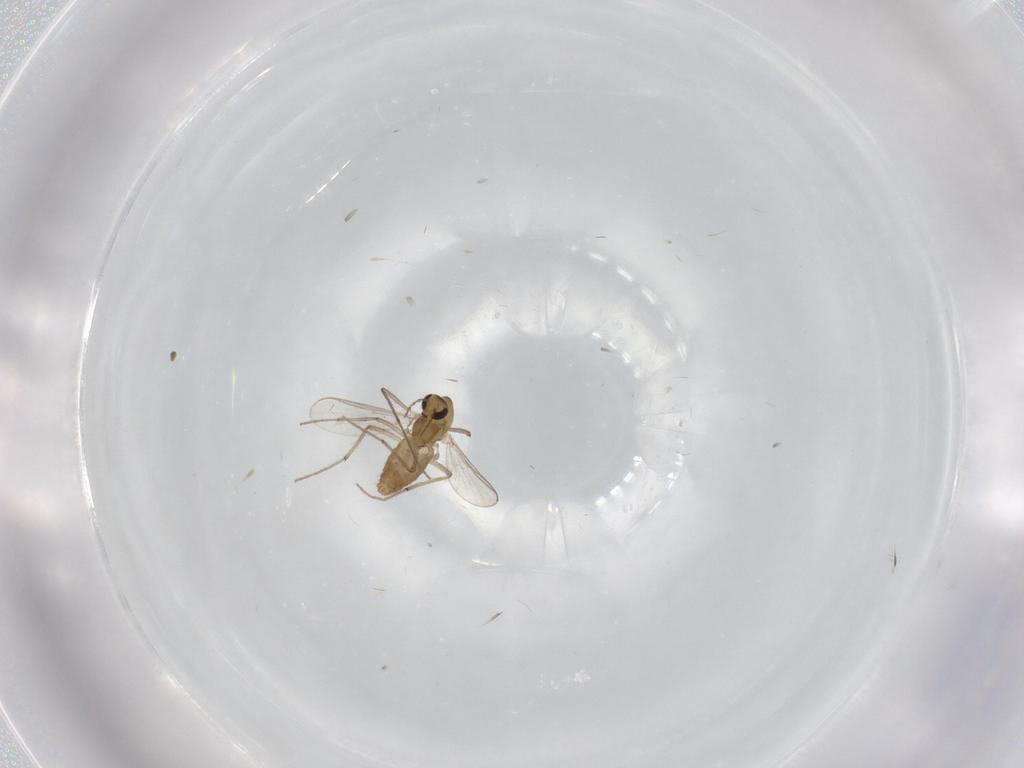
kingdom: Animalia
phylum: Arthropoda
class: Insecta
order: Diptera
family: Chironomidae
